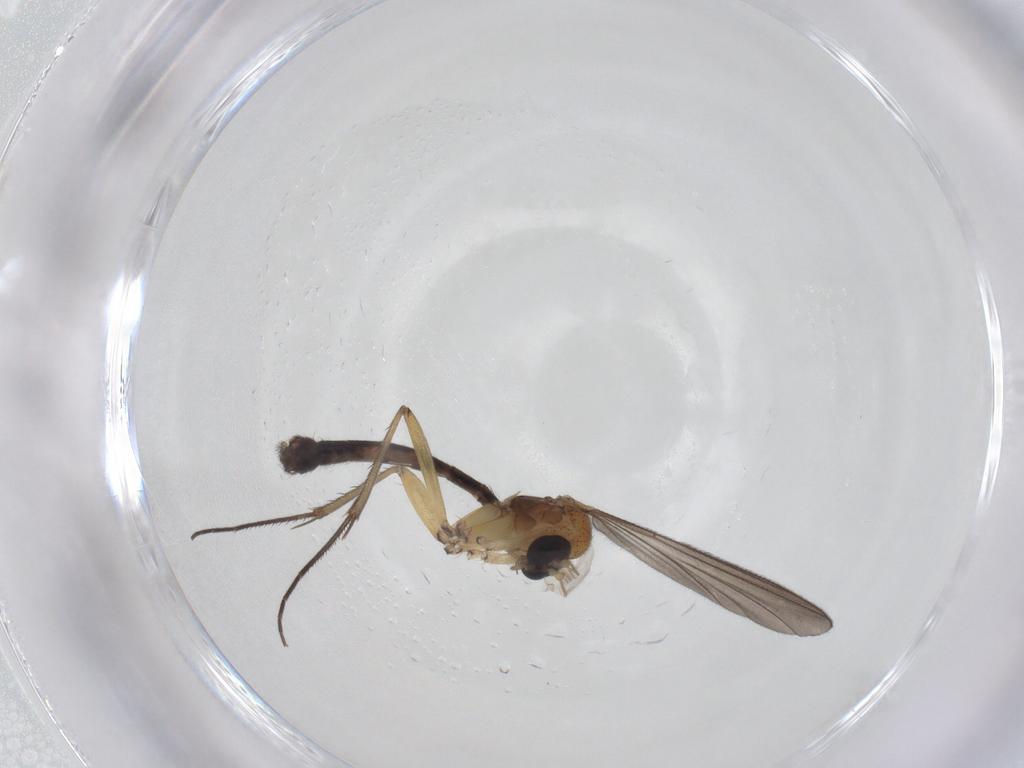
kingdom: Animalia
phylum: Arthropoda
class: Insecta
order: Diptera
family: Mycetophilidae
